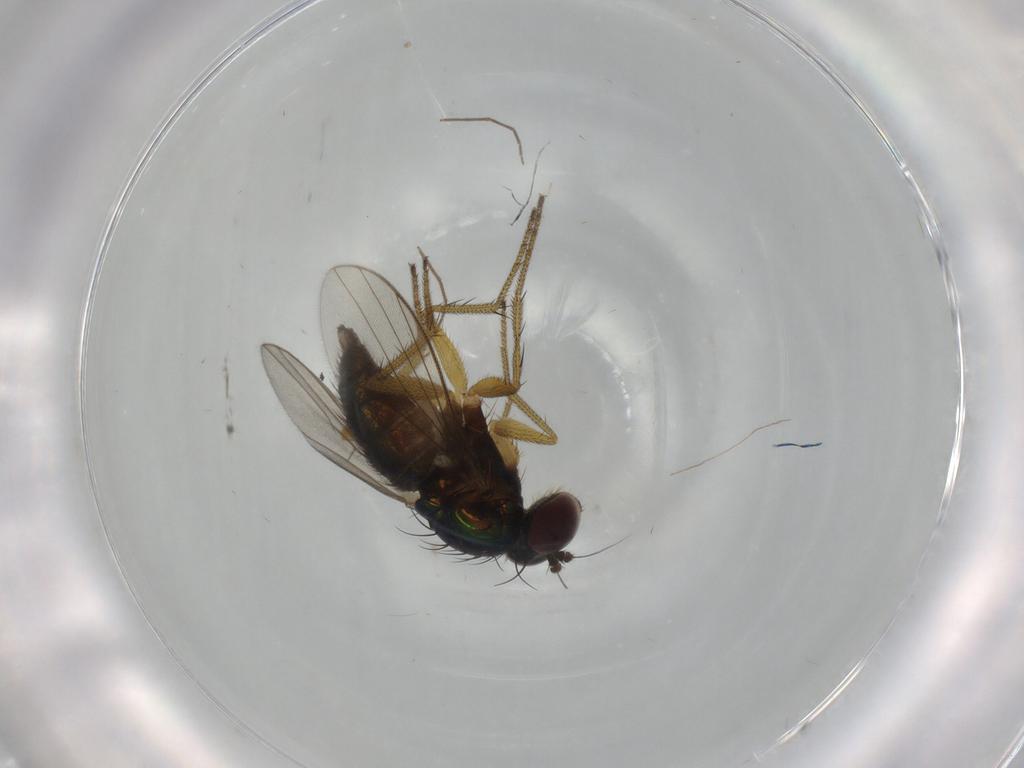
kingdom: Animalia
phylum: Arthropoda
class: Insecta
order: Diptera
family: Dolichopodidae
